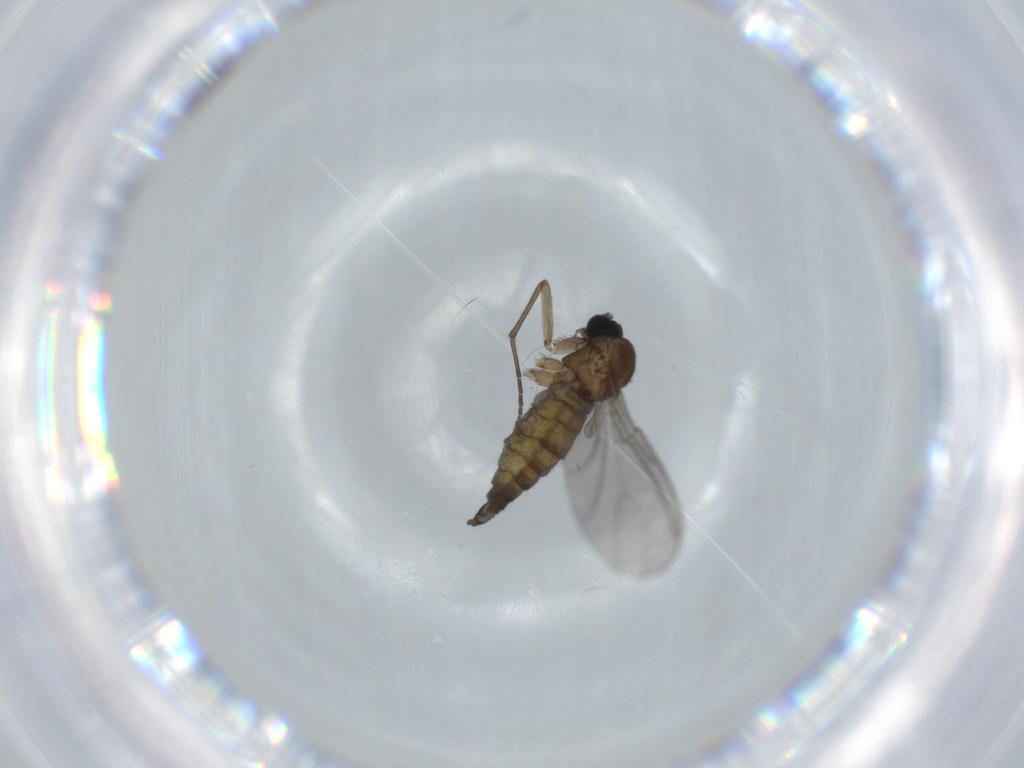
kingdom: Animalia
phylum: Arthropoda
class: Insecta
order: Diptera
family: Sciaridae
